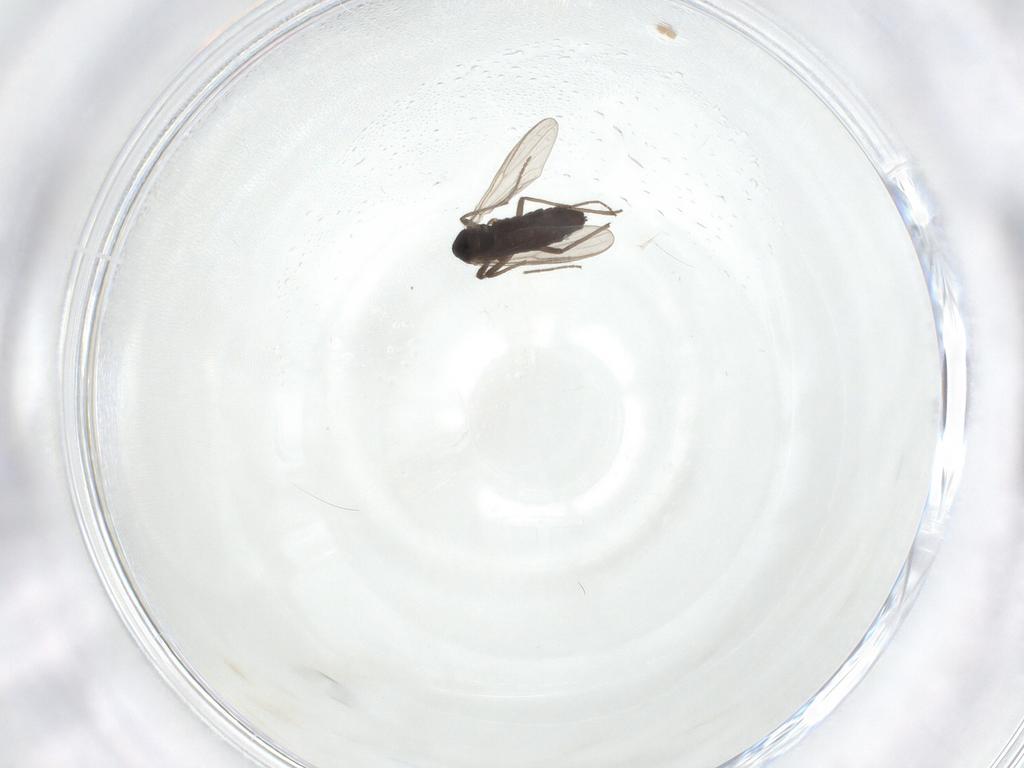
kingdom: Animalia
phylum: Arthropoda
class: Insecta
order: Diptera
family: Chironomidae
